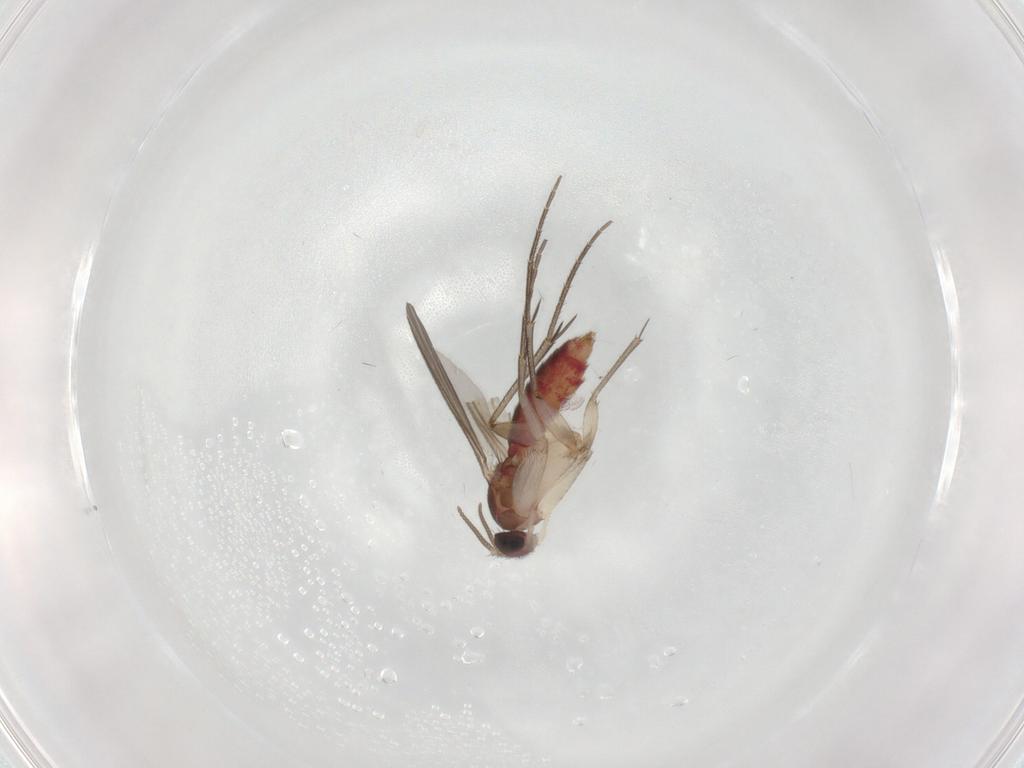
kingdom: Animalia
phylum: Arthropoda
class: Insecta
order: Diptera
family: Mycetophilidae
